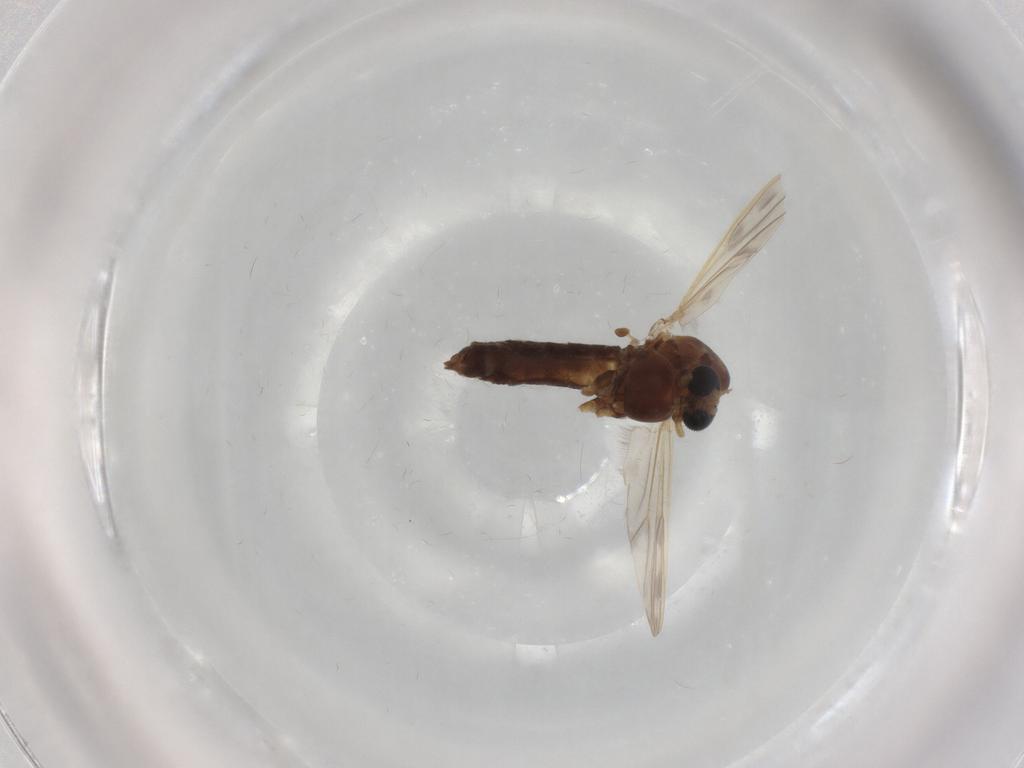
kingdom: Animalia
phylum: Arthropoda
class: Insecta
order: Diptera
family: Chironomidae
